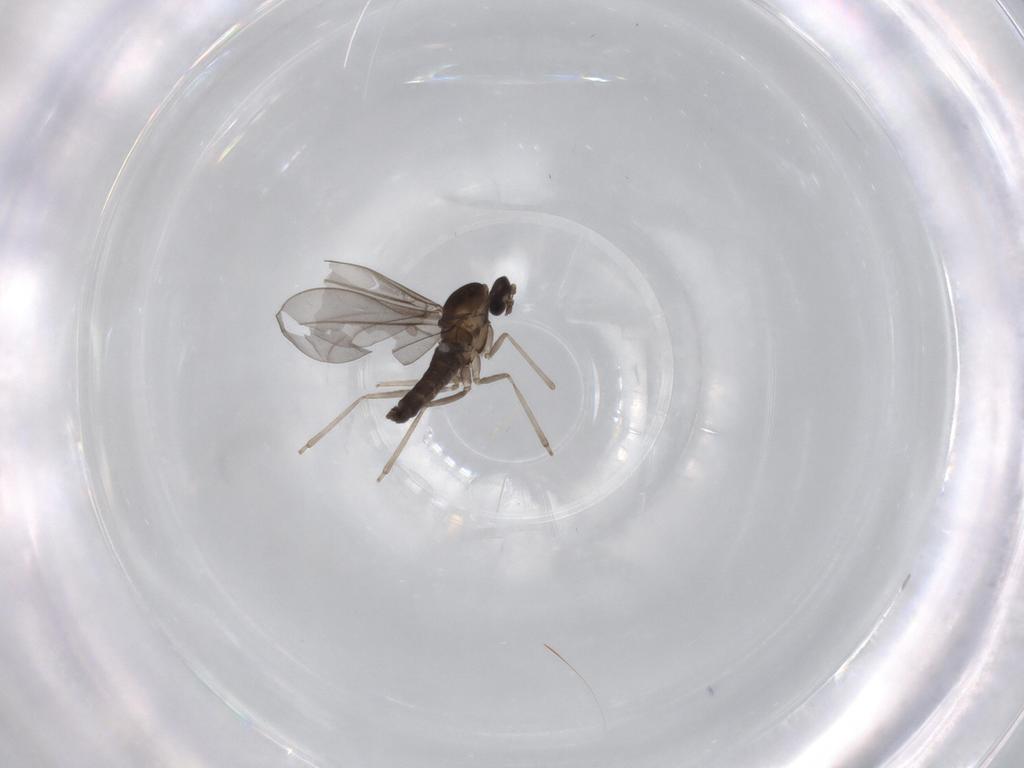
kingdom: Animalia
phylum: Arthropoda
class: Insecta
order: Diptera
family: Cecidomyiidae
